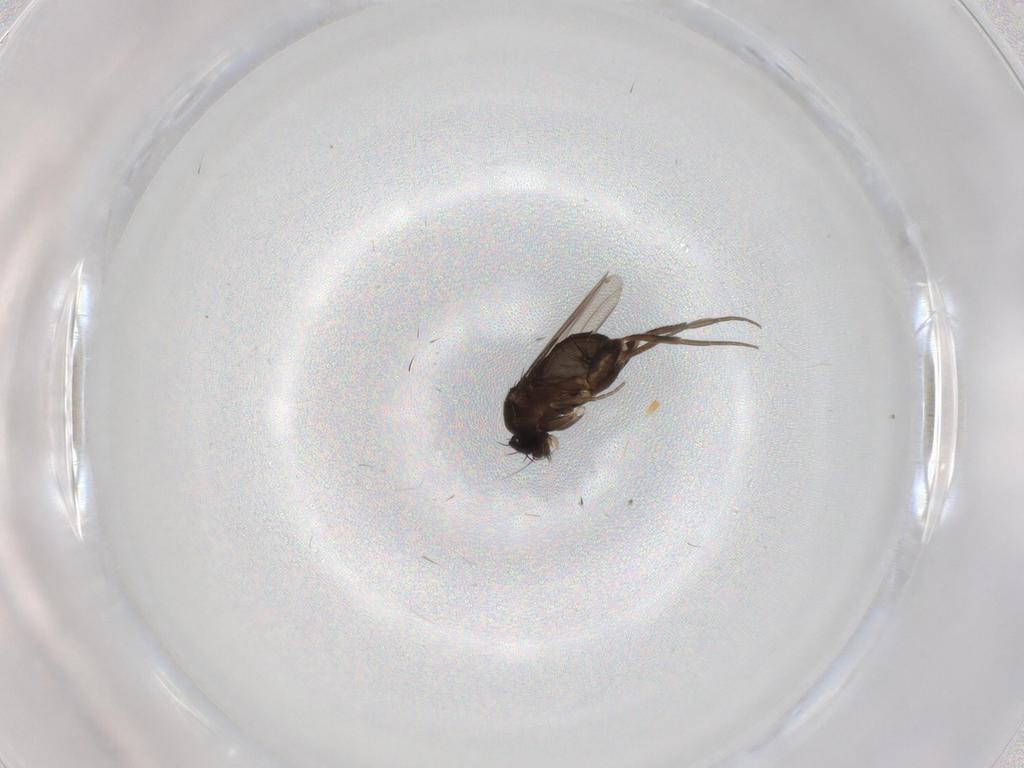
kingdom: Animalia
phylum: Arthropoda
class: Insecta
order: Diptera
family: Phoridae
